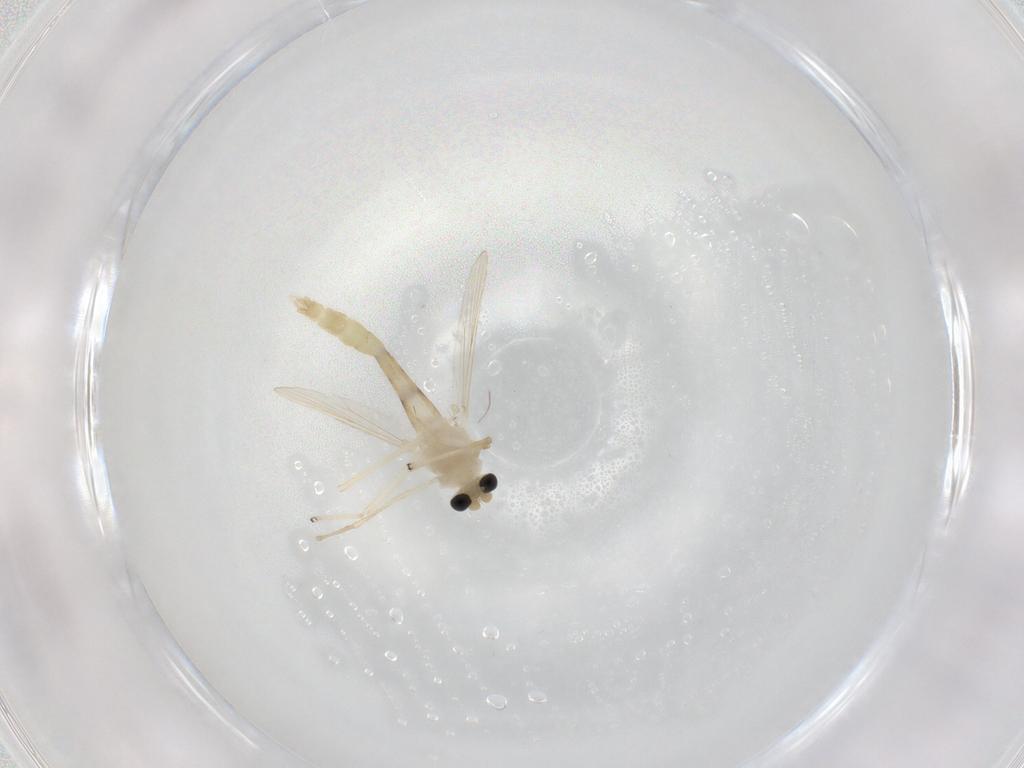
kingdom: Animalia
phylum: Arthropoda
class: Insecta
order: Diptera
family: Chironomidae
